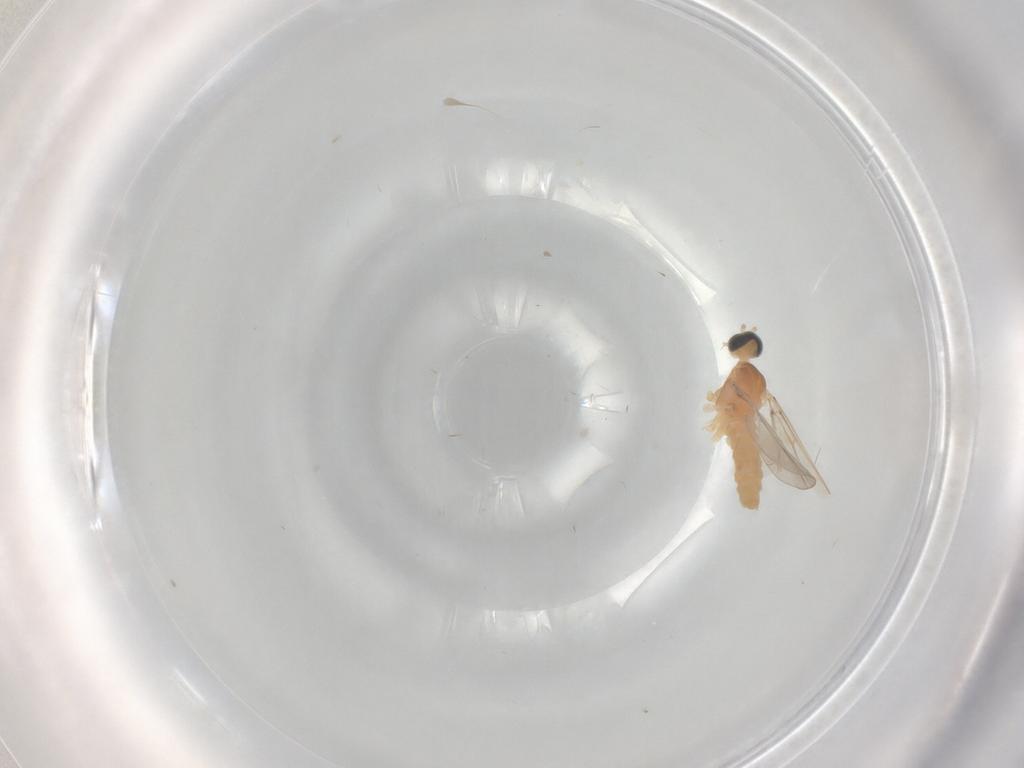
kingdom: Animalia
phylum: Arthropoda
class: Insecta
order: Diptera
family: Cecidomyiidae
